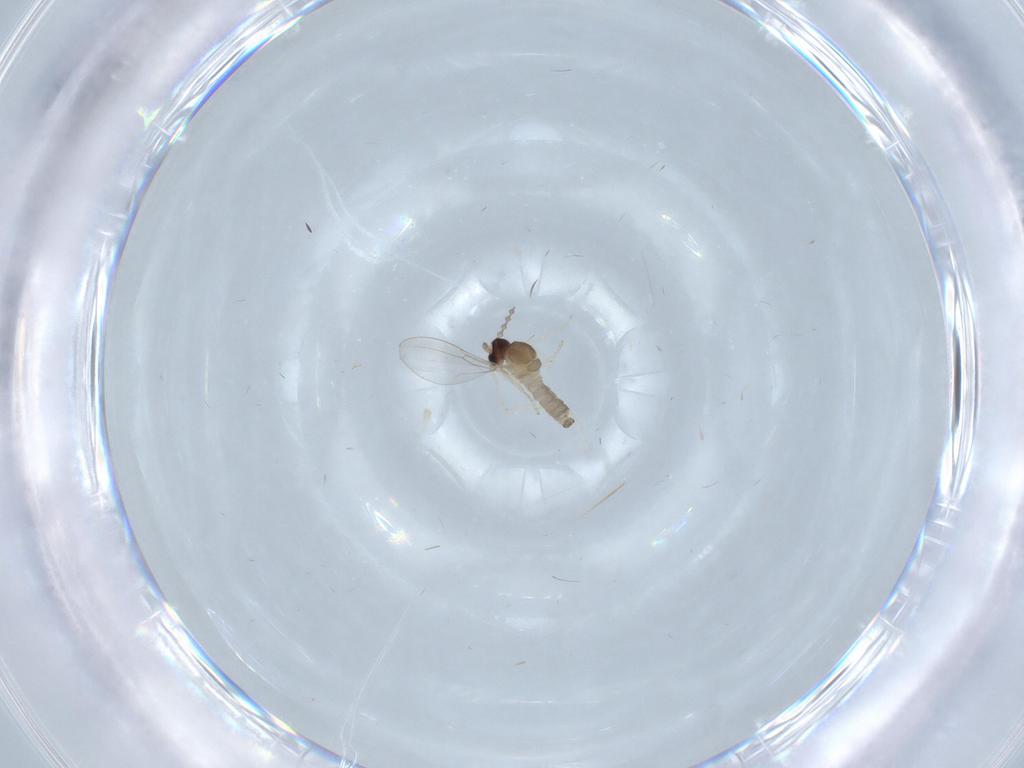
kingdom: Animalia
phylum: Arthropoda
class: Insecta
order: Diptera
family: Cecidomyiidae
